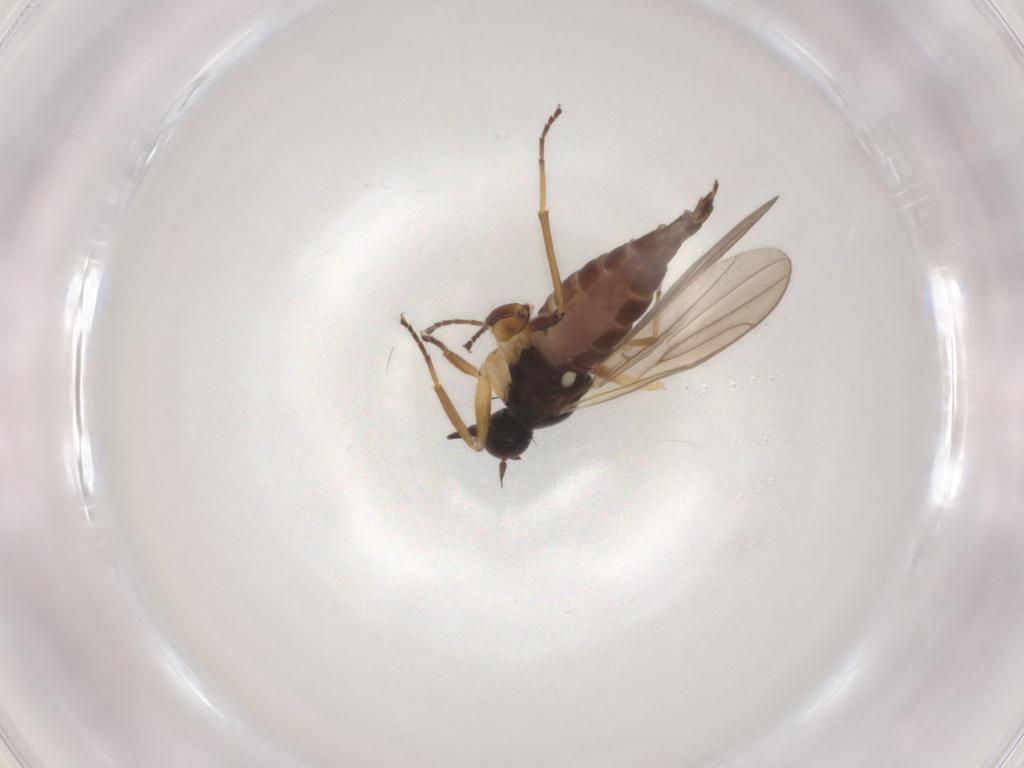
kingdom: Animalia
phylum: Arthropoda
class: Insecta
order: Diptera
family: Hybotidae
